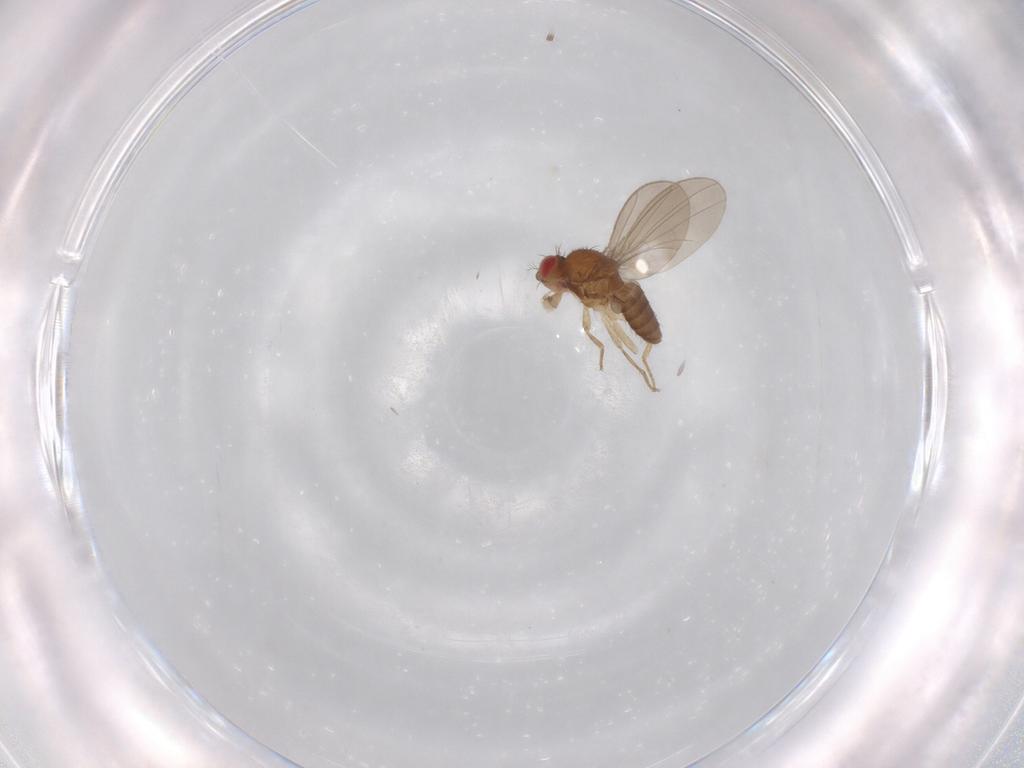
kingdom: Animalia
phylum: Arthropoda
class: Insecta
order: Diptera
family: Drosophilidae
